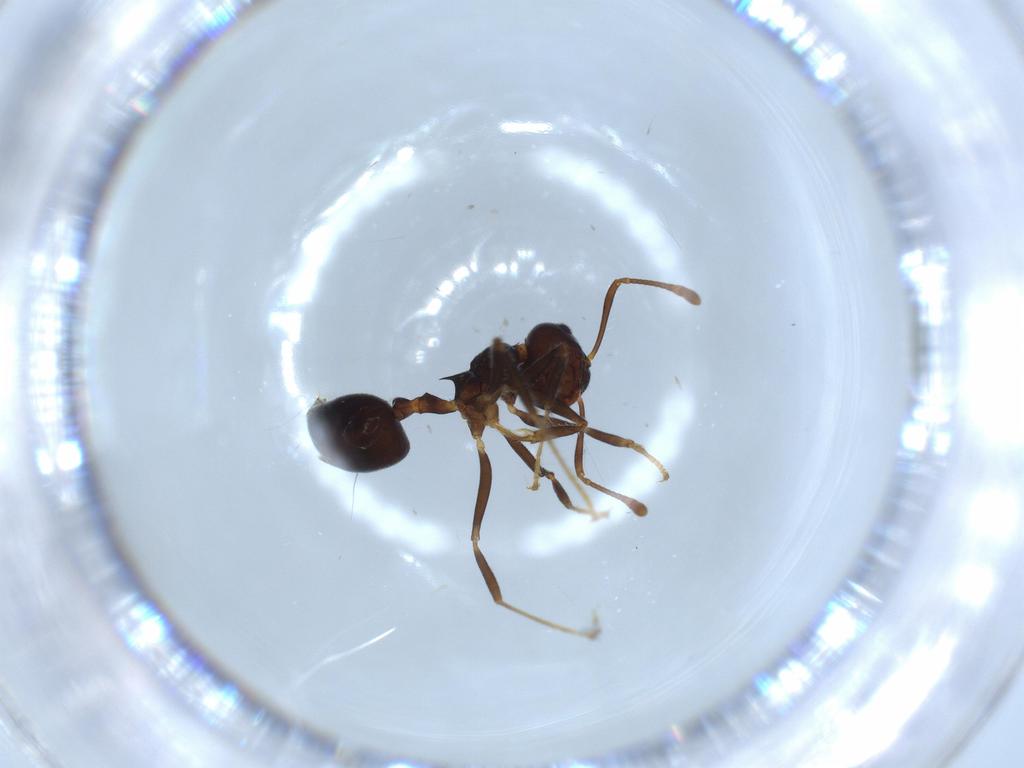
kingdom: Animalia
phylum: Arthropoda
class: Insecta
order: Hymenoptera
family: Formicidae
